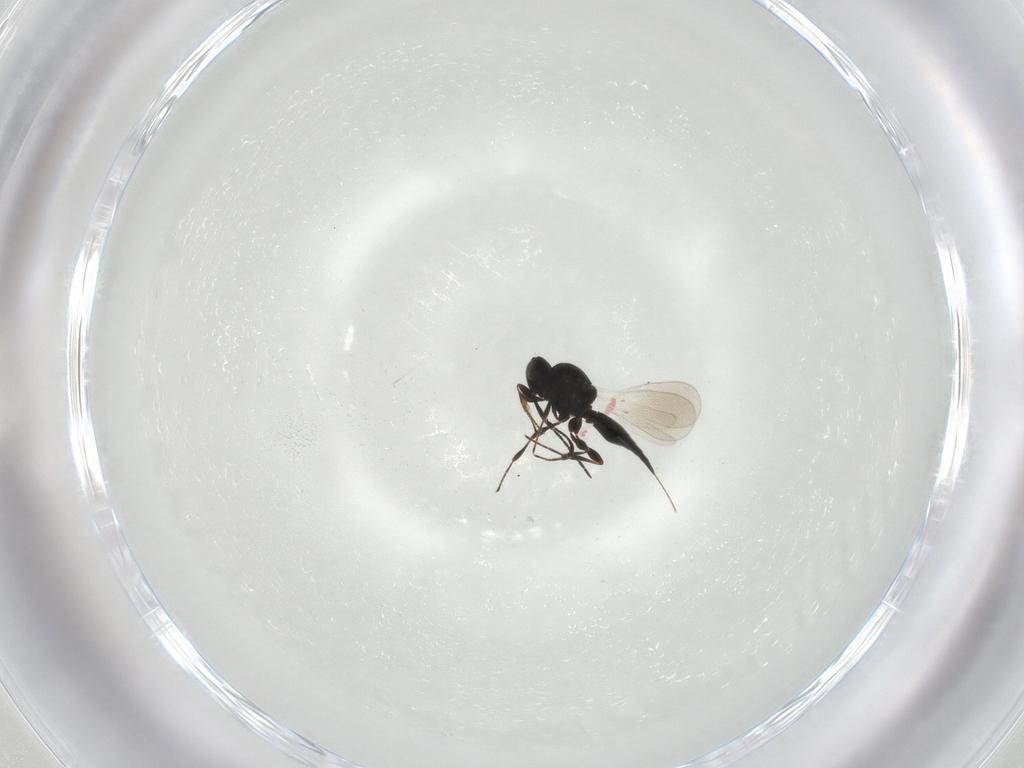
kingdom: Animalia
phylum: Arthropoda
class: Insecta
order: Hymenoptera
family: Platygastridae
